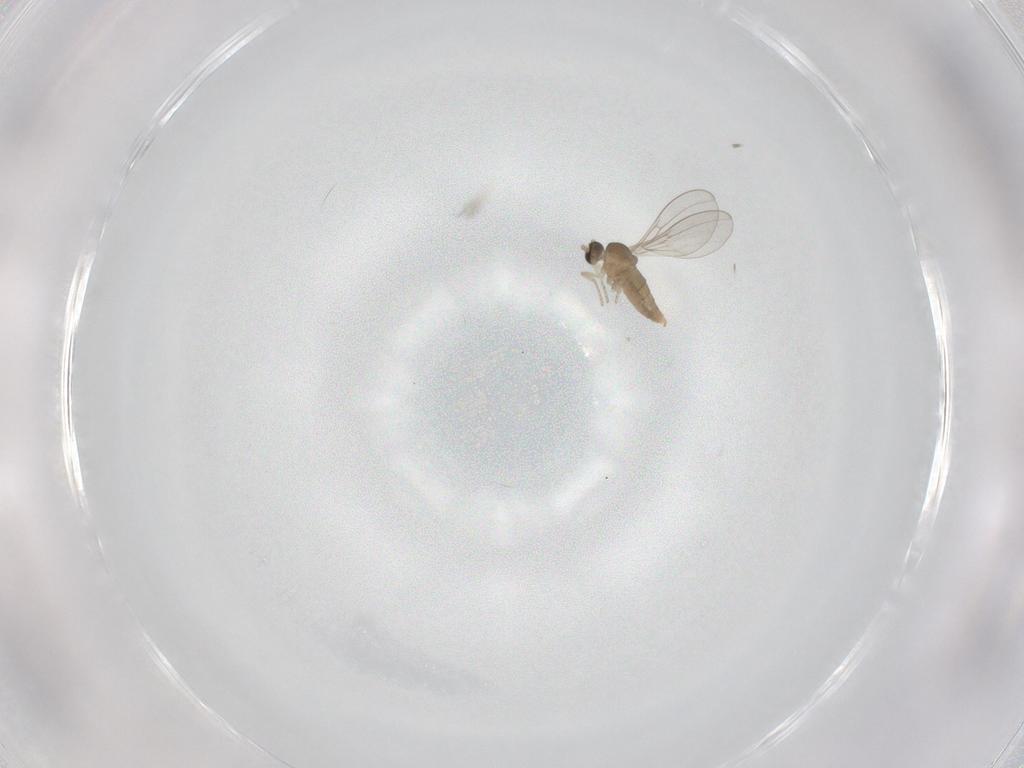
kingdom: Animalia
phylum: Arthropoda
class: Insecta
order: Diptera
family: Cecidomyiidae
